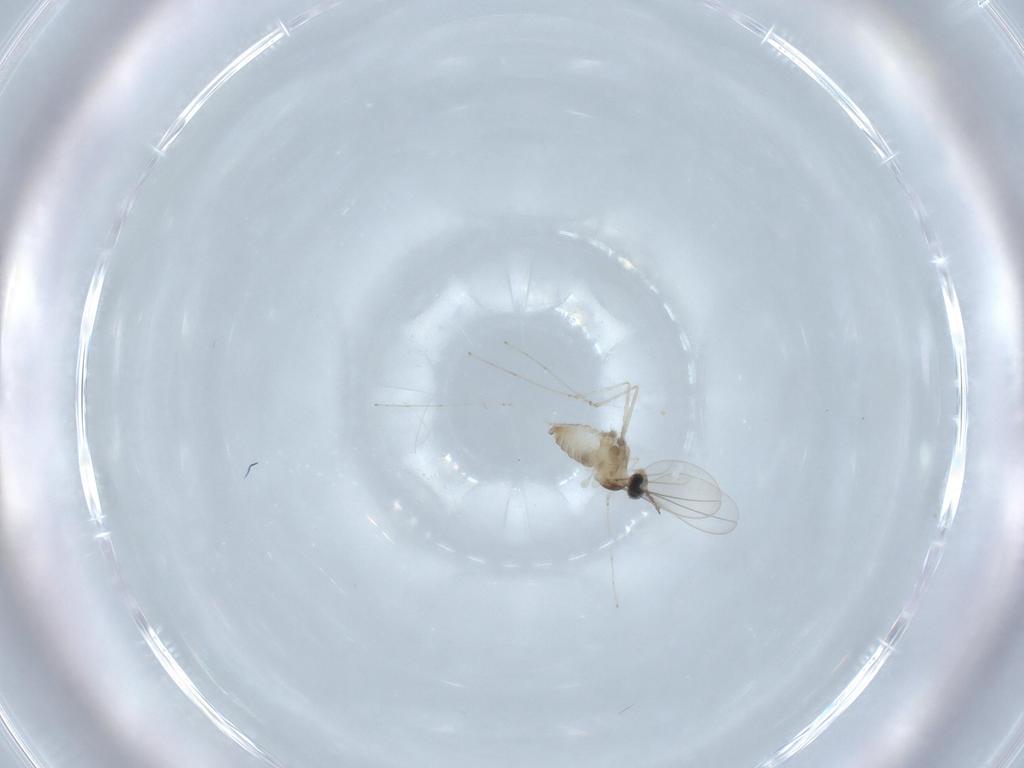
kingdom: Animalia
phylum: Arthropoda
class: Insecta
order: Diptera
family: Cecidomyiidae
